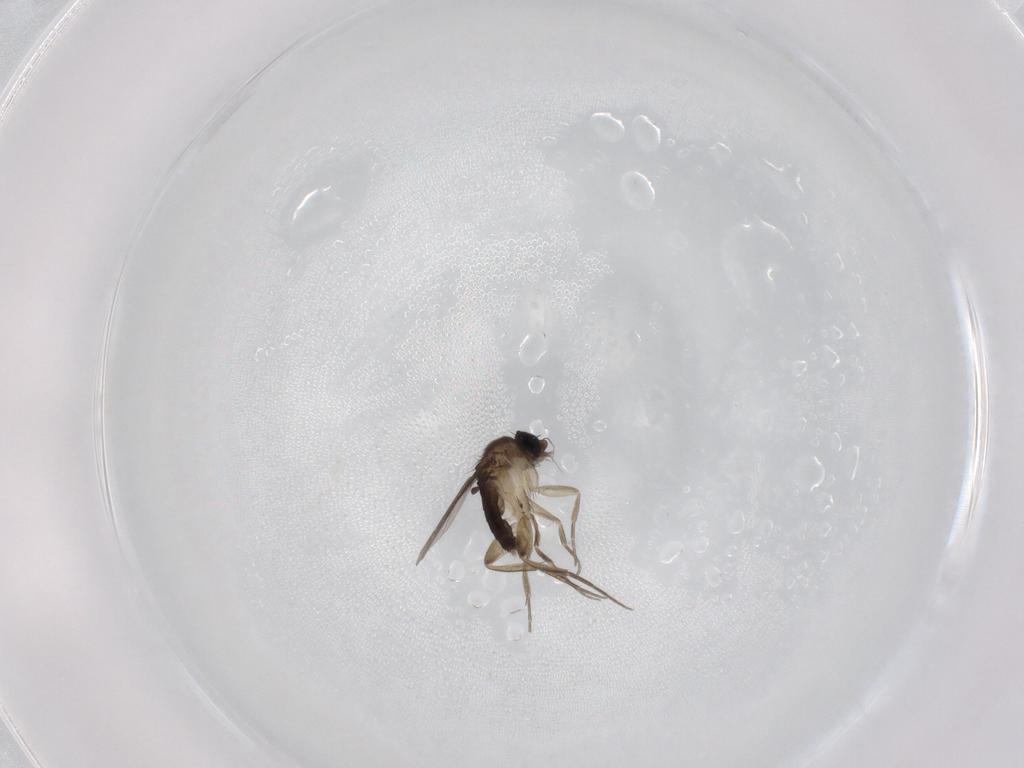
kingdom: Animalia
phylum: Arthropoda
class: Insecta
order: Diptera
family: Phoridae
